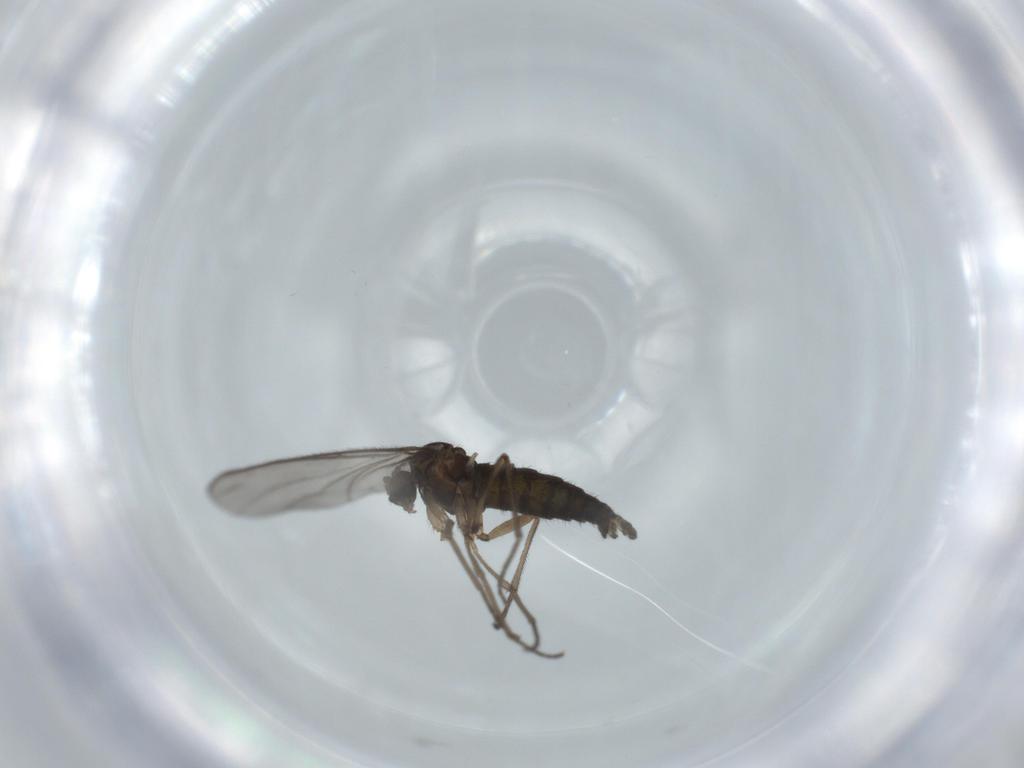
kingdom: Animalia
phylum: Arthropoda
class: Insecta
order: Diptera
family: Sciaridae
